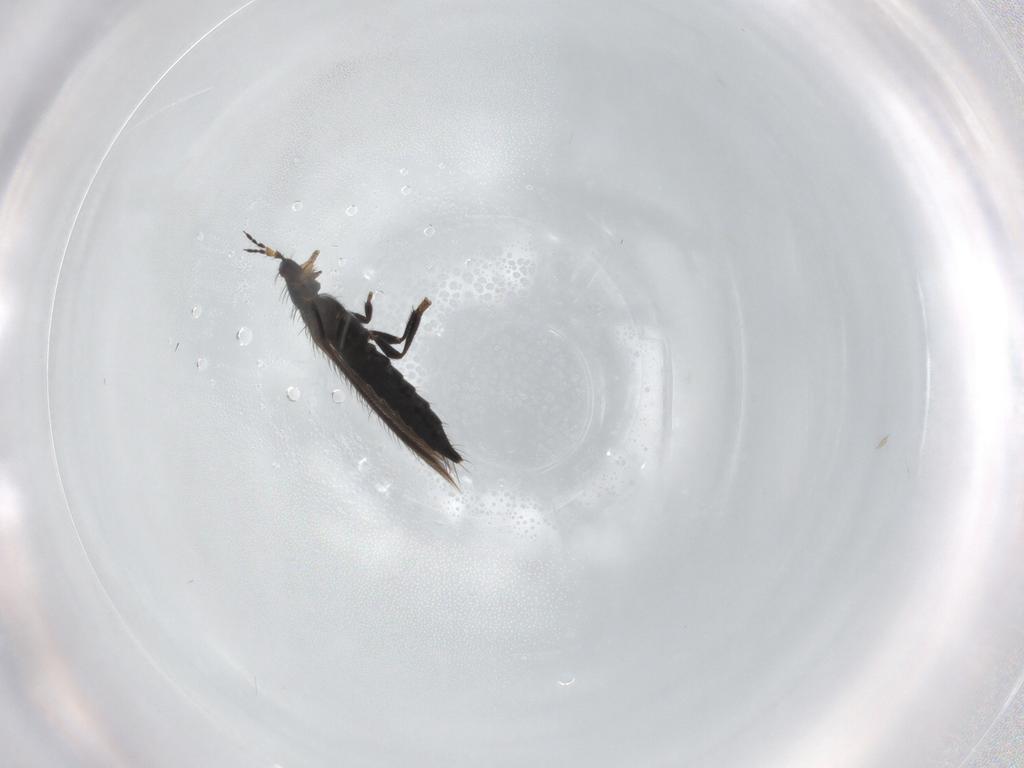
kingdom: Animalia
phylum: Arthropoda
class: Insecta
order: Thysanoptera
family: Thripidae
